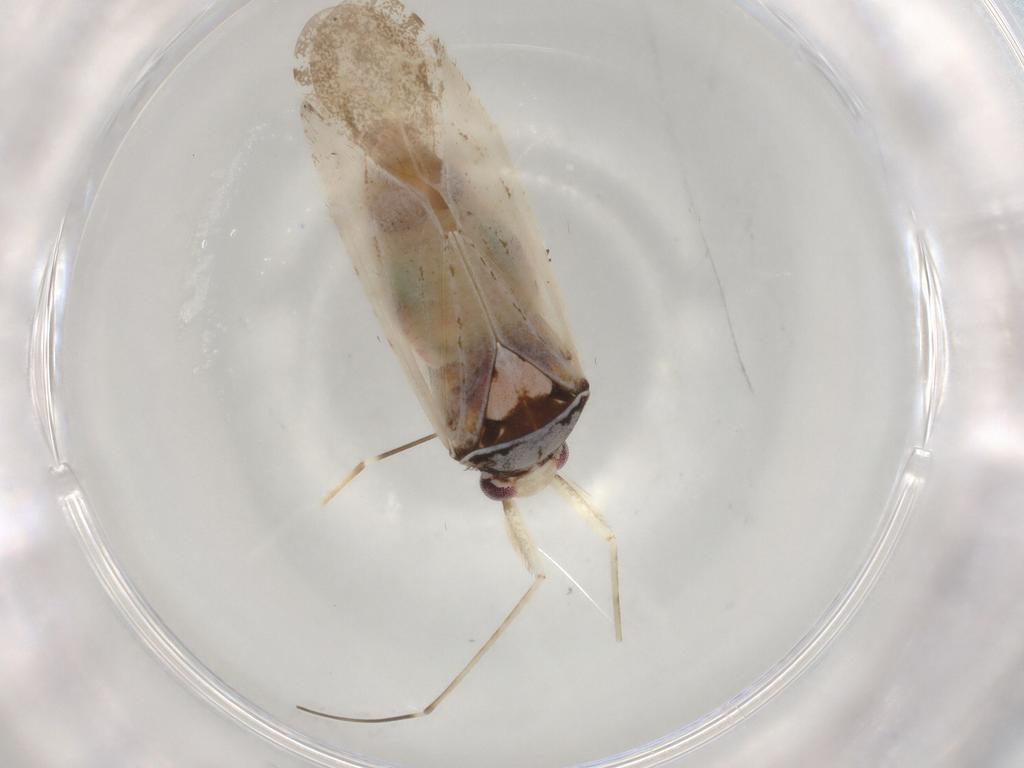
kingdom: Animalia
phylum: Arthropoda
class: Insecta
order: Hemiptera
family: Miridae
